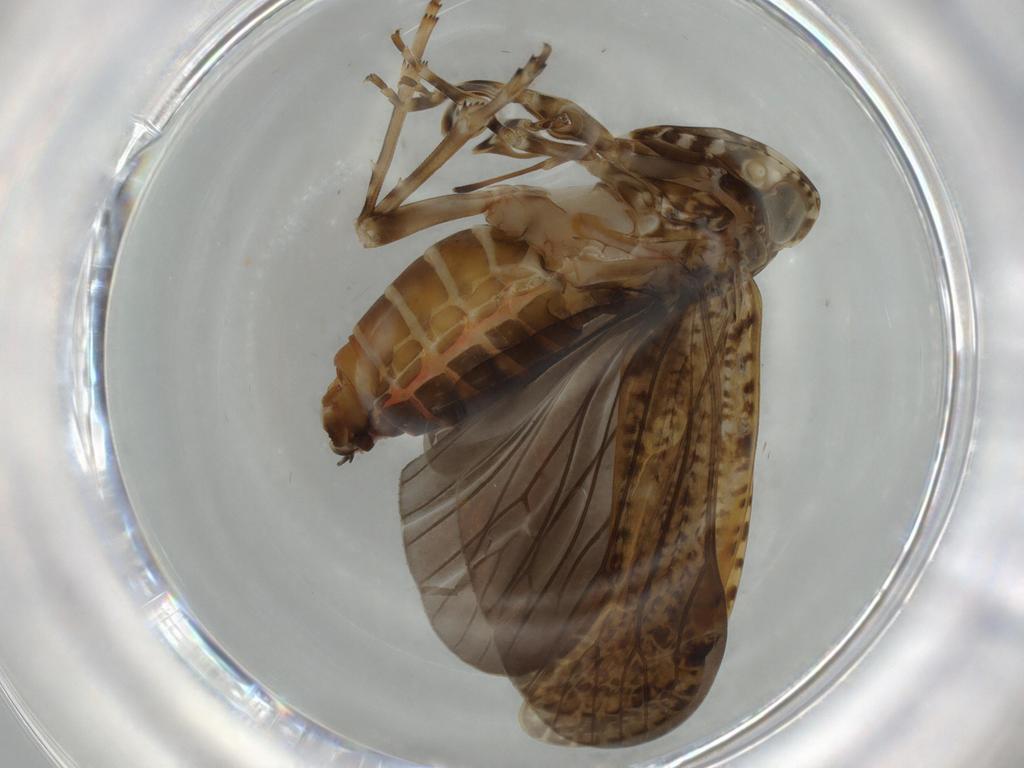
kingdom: Animalia
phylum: Arthropoda
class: Insecta
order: Hemiptera
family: Achilidae
